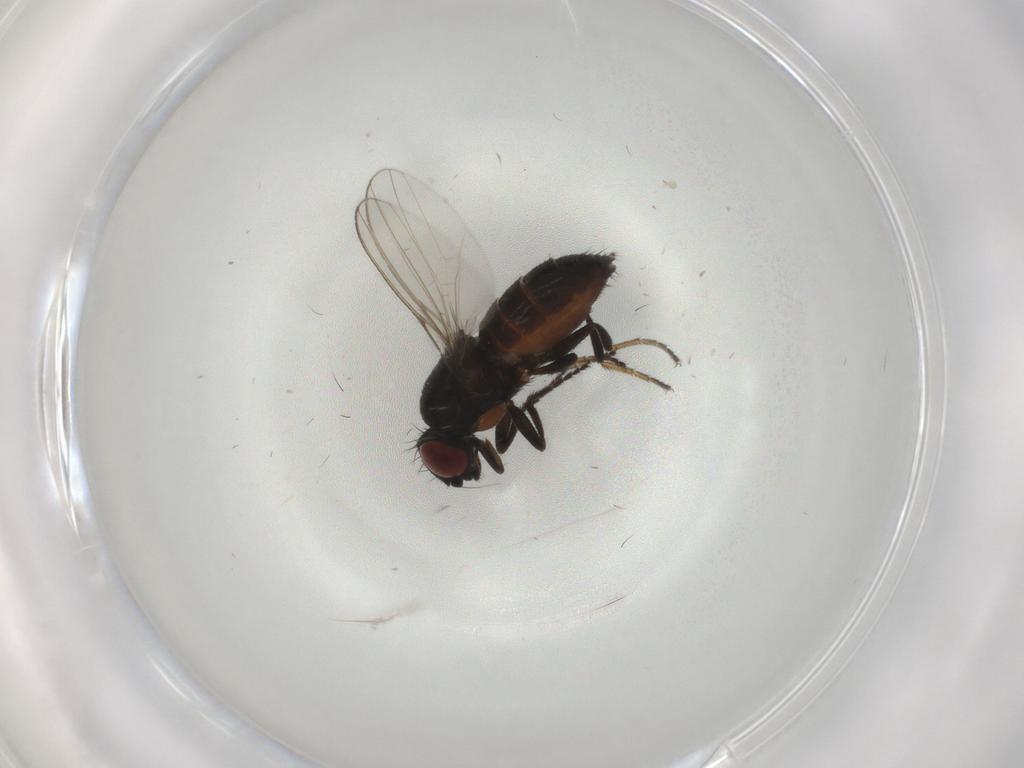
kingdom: Animalia
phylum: Arthropoda
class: Insecta
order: Diptera
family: Milichiidae
